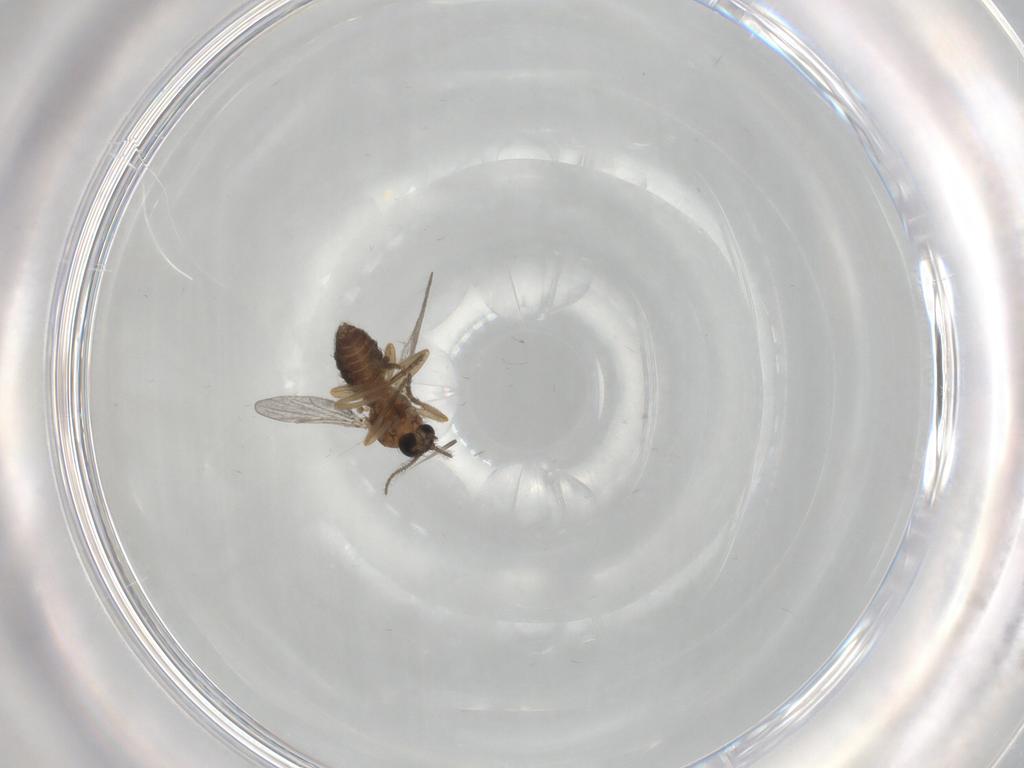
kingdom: Animalia
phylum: Arthropoda
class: Insecta
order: Diptera
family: Ceratopogonidae
